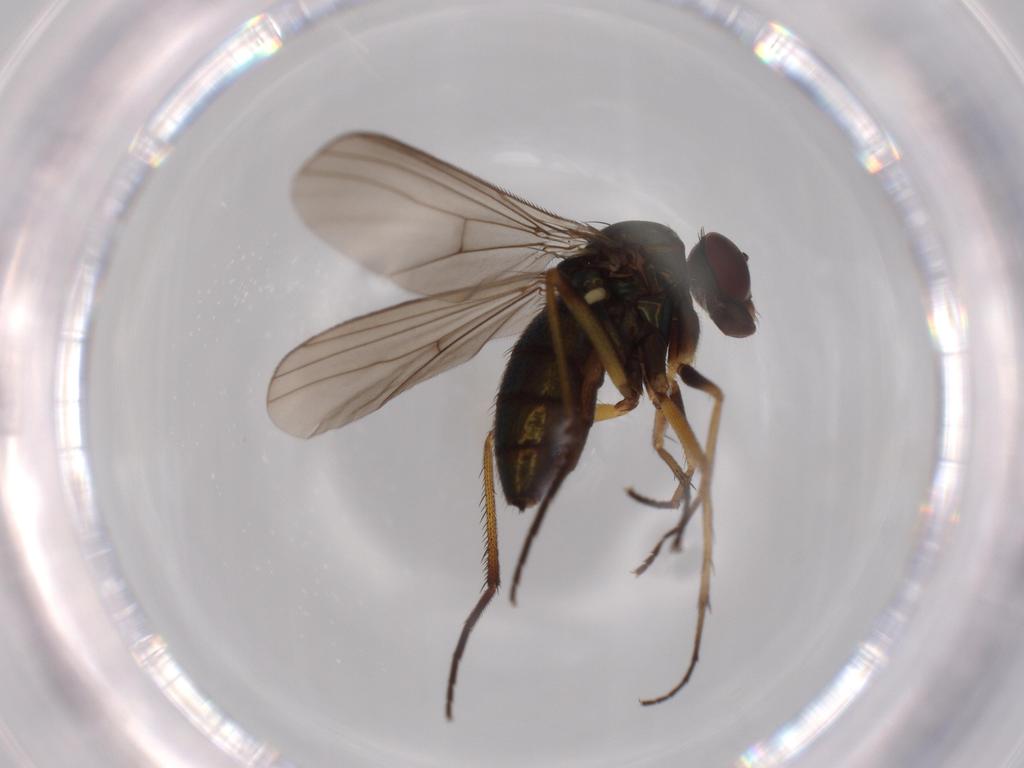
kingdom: Animalia
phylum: Arthropoda
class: Insecta
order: Diptera
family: Dolichopodidae
